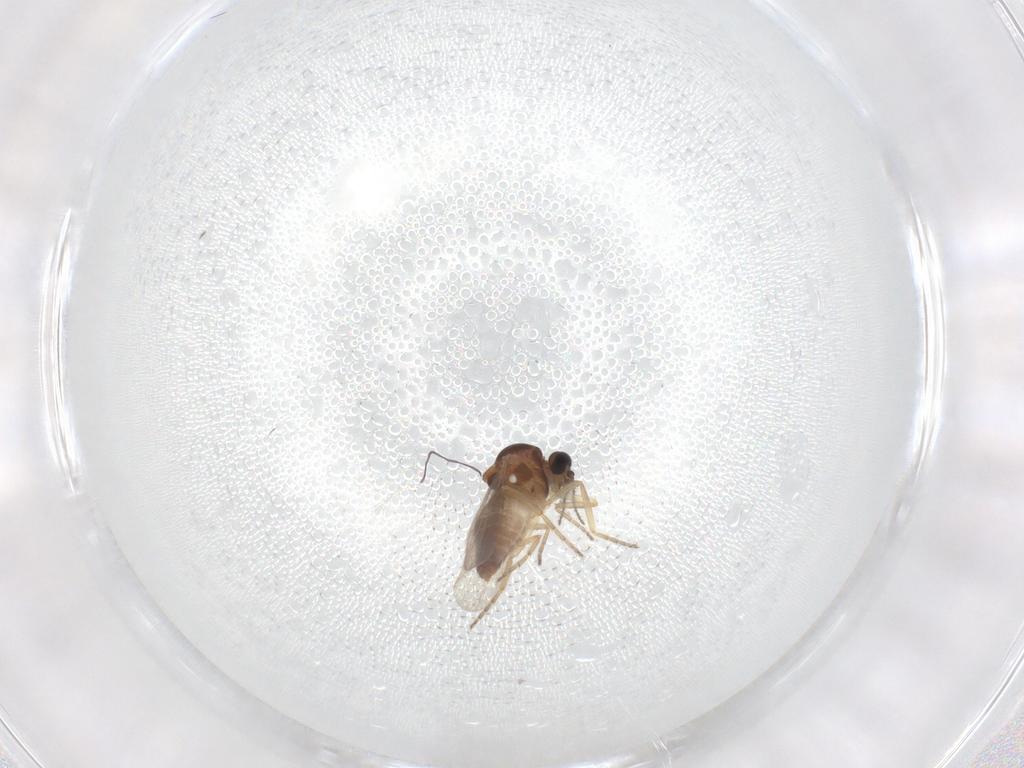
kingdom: Animalia
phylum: Arthropoda
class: Insecta
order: Diptera
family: Ceratopogonidae
